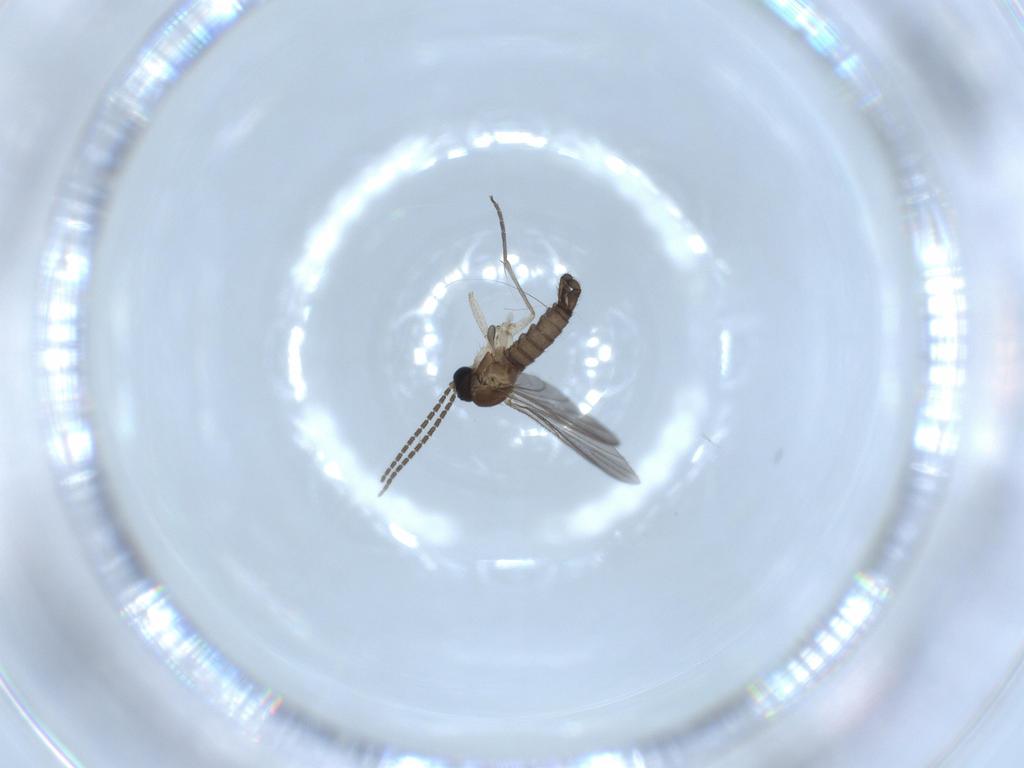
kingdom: Animalia
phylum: Arthropoda
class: Insecta
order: Diptera
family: Sciaridae
